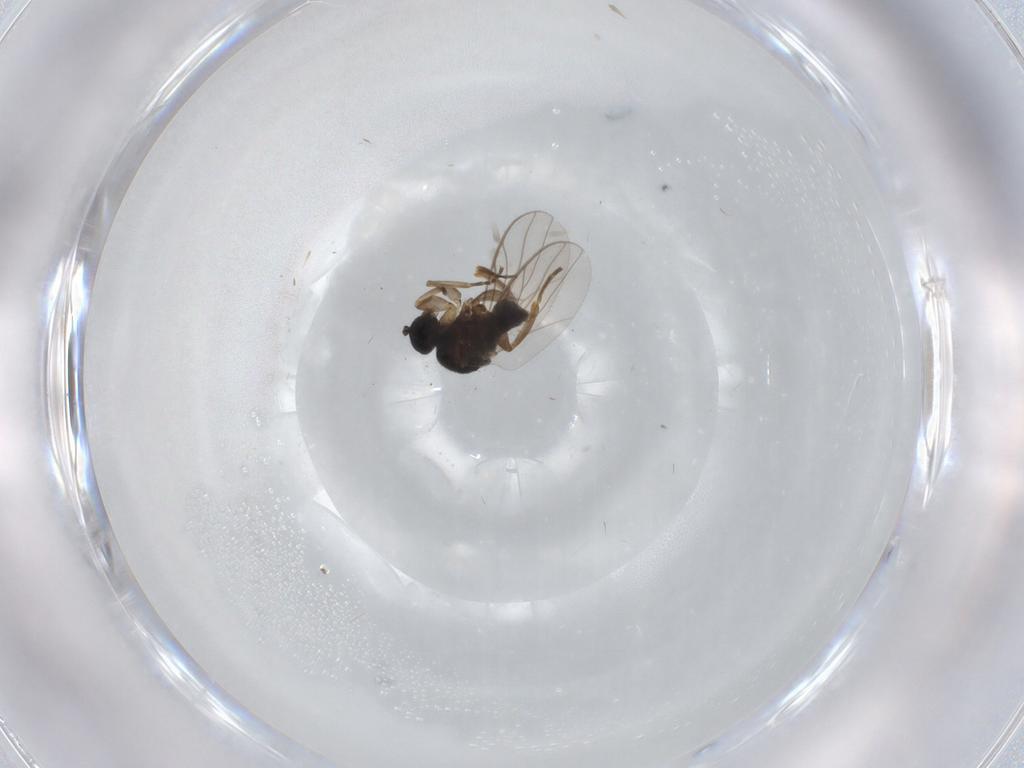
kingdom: Animalia
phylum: Arthropoda
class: Insecta
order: Diptera
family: Hybotidae
